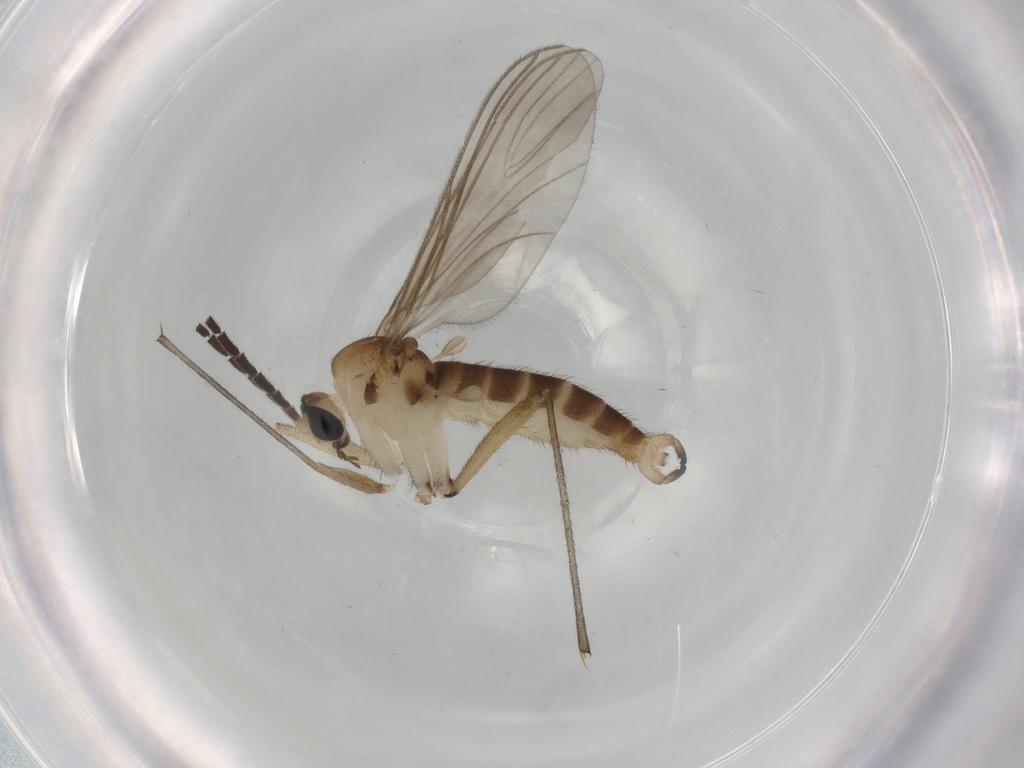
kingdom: Animalia
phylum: Arthropoda
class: Insecta
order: Diptera
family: Sciaridae
